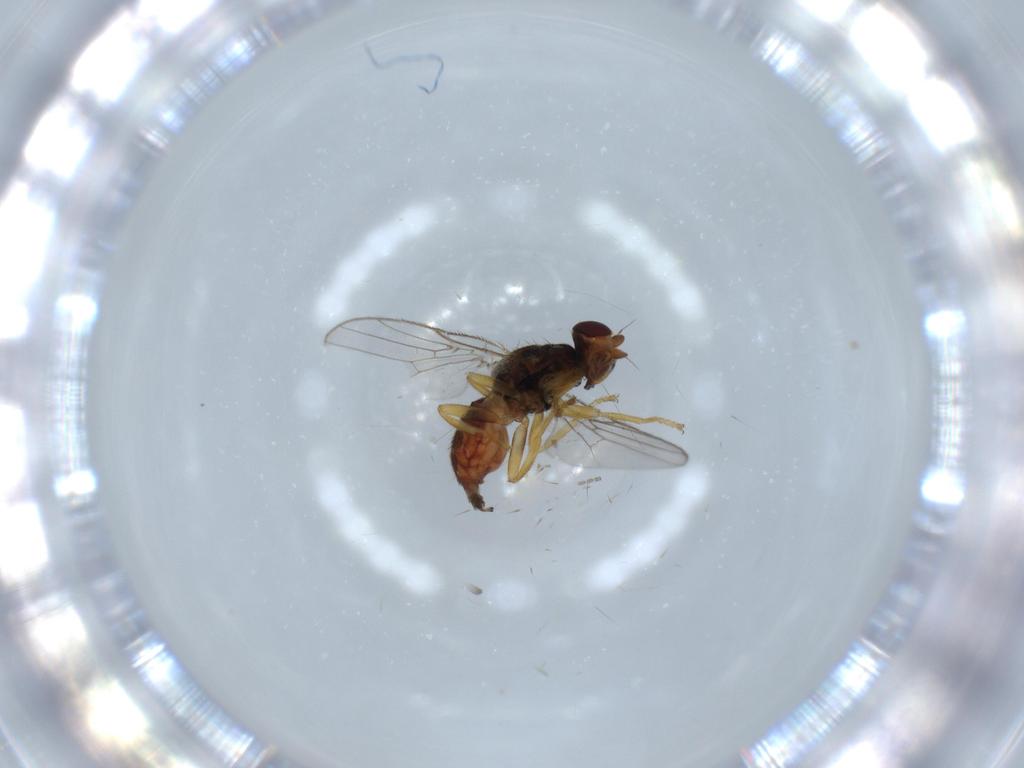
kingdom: Animalia
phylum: Arthropoda
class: Insecta
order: Diptera
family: Chloropidae
